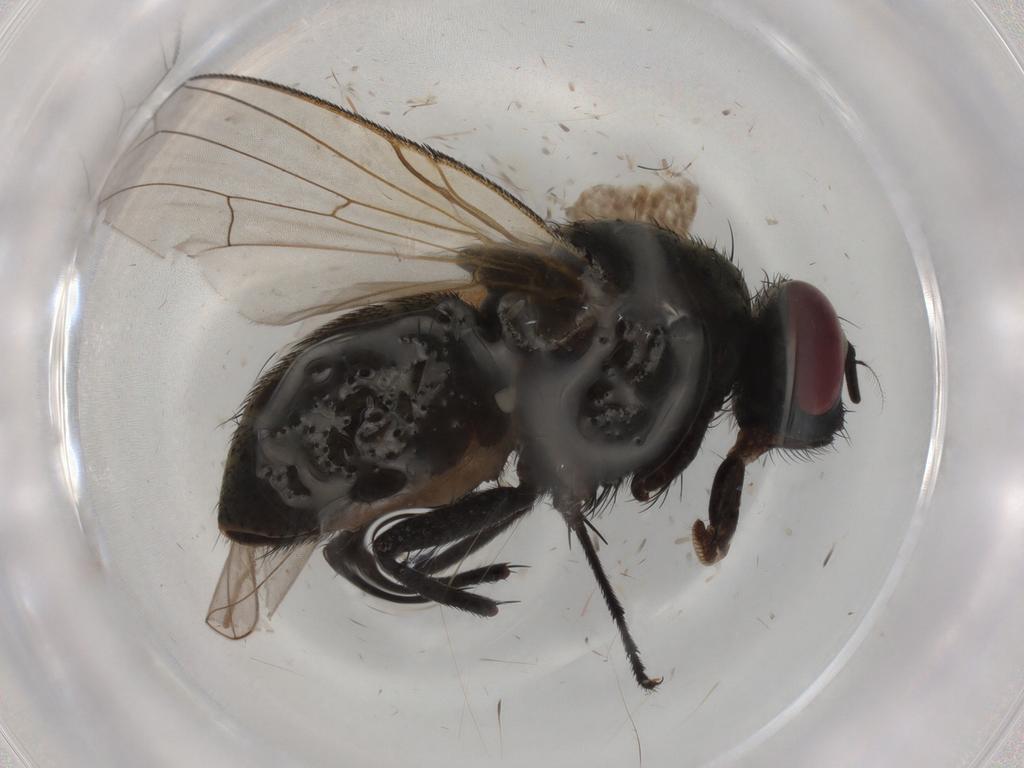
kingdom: Animalia
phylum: Arthropoda
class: Insecta
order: Diptera
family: Muscidae
